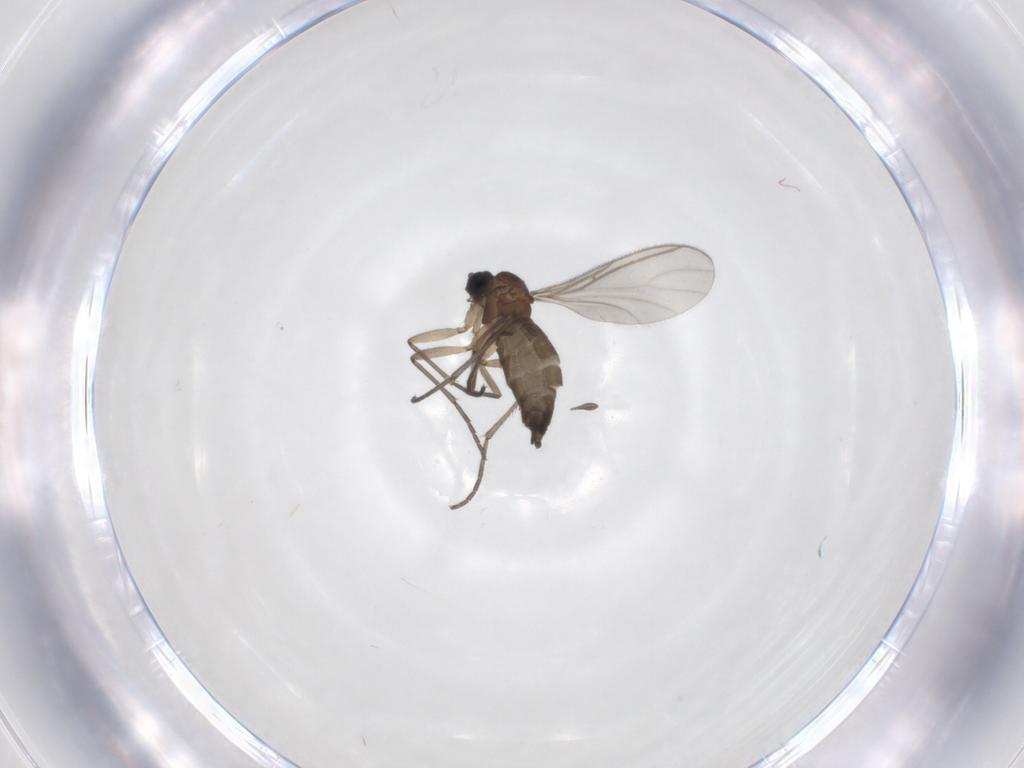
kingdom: Animalia
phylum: Arthropoda
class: Insecta
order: Diptera
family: Sciaridae
